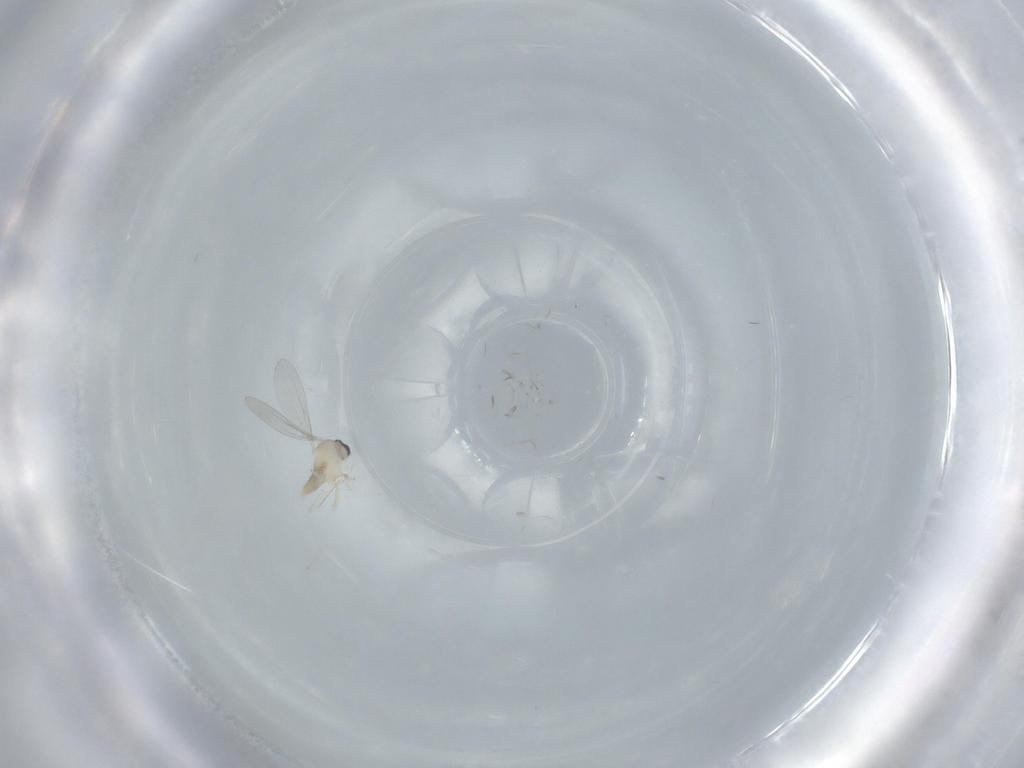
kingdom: Animalia
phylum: Arthropoda
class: Insecta
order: Diptera
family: Cecidomyiidae
